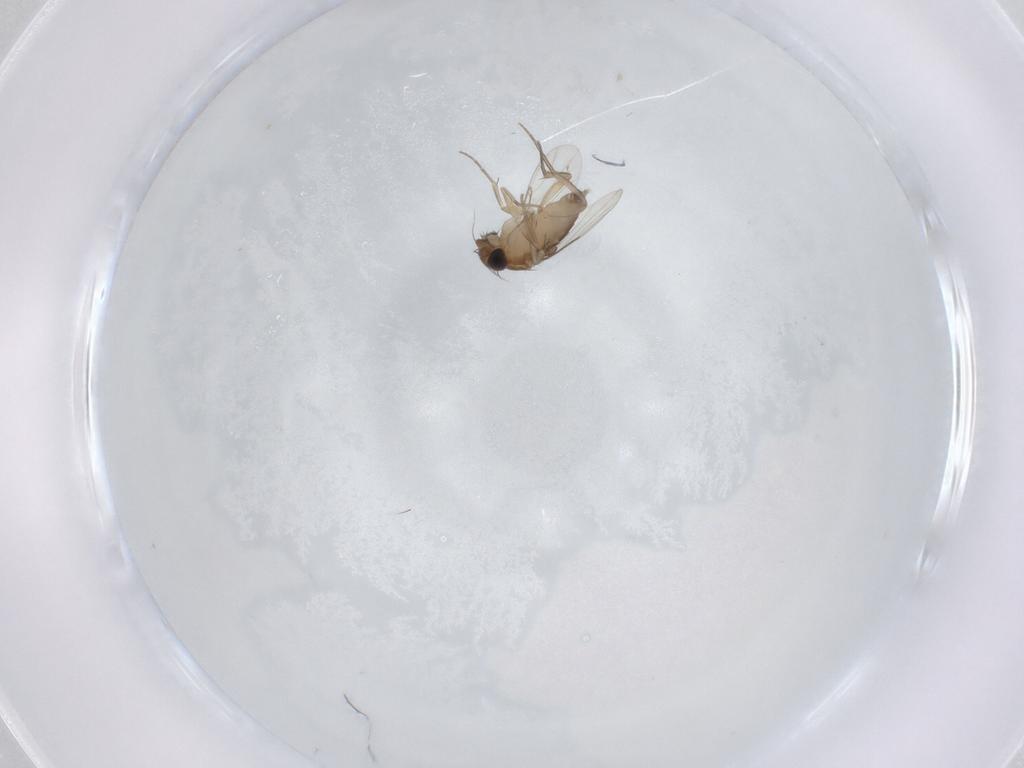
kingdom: Animalia
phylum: Arthropoda
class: Insecta
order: Diptera
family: Phoridae
